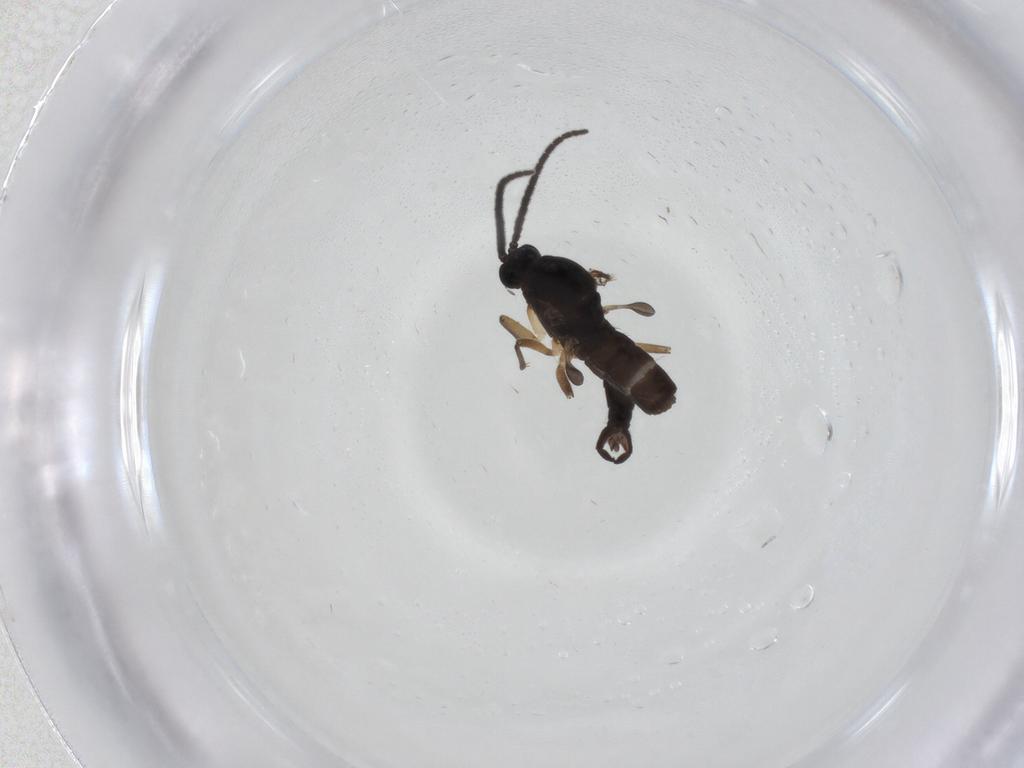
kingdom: Animalia
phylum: Arthropoda
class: Insecta
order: Diptera
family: Sciaridae
